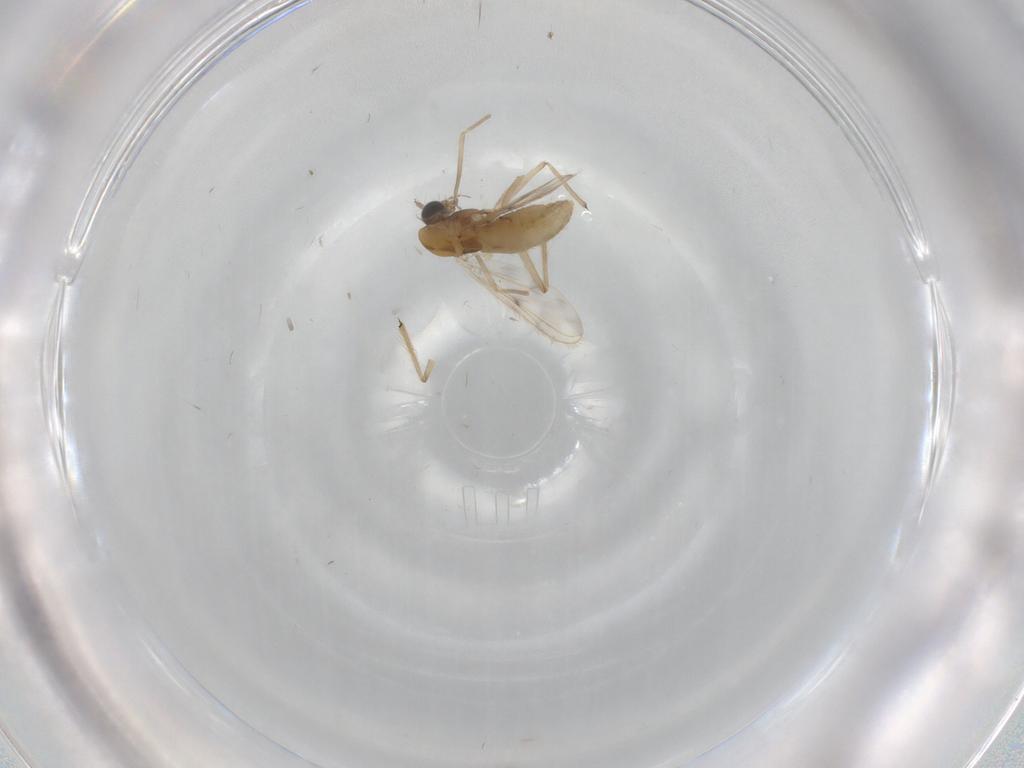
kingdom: Animalia
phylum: Arthropoda
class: Insecta
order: Diptera
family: Chironomidae
